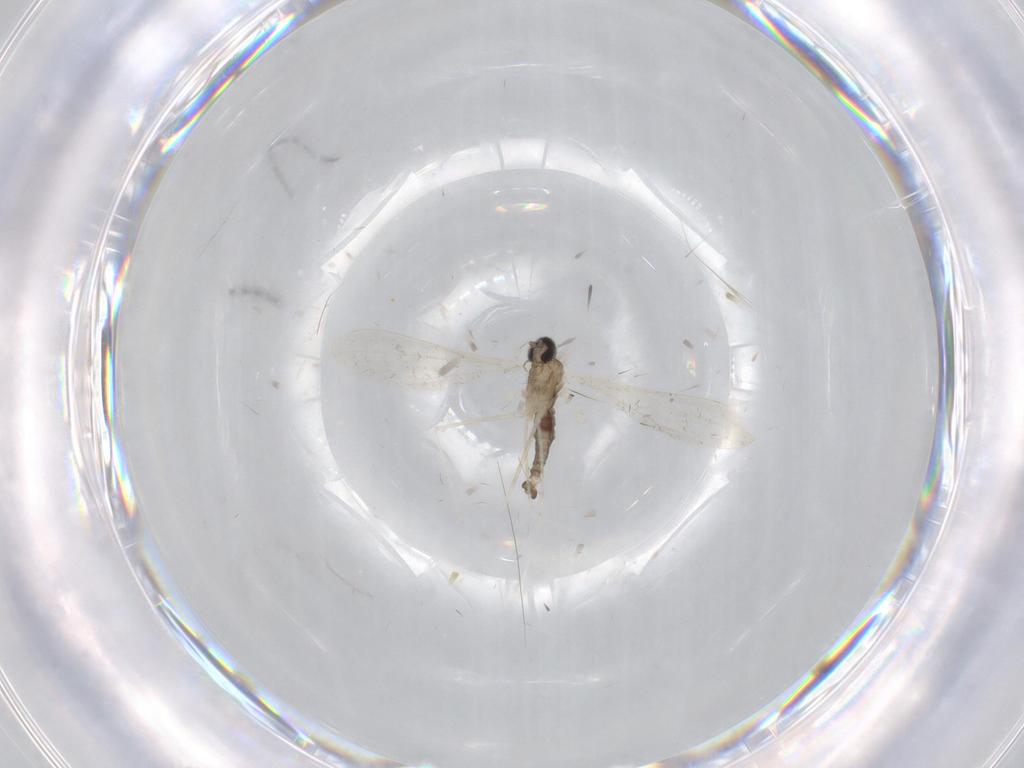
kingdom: Animalia
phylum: Arthropoda
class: Insecta
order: Diptera
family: Cecidomyiidae
